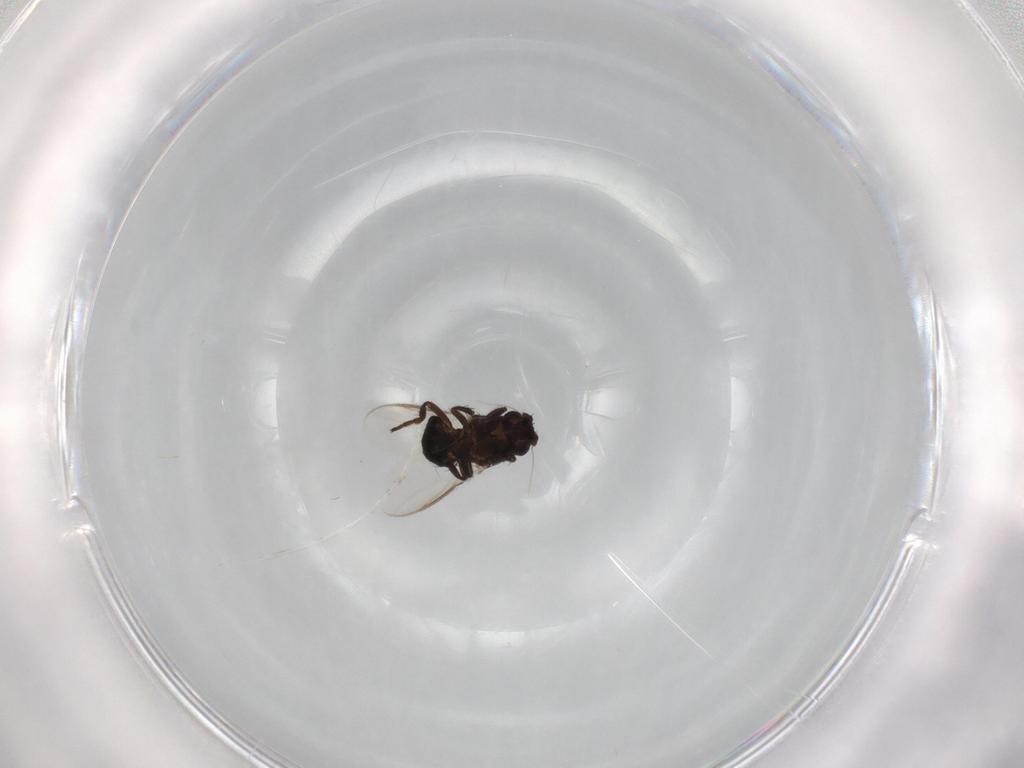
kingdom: Animalia
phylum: Arthropoda
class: Insecta
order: Diptera
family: Sphaeroceridae
